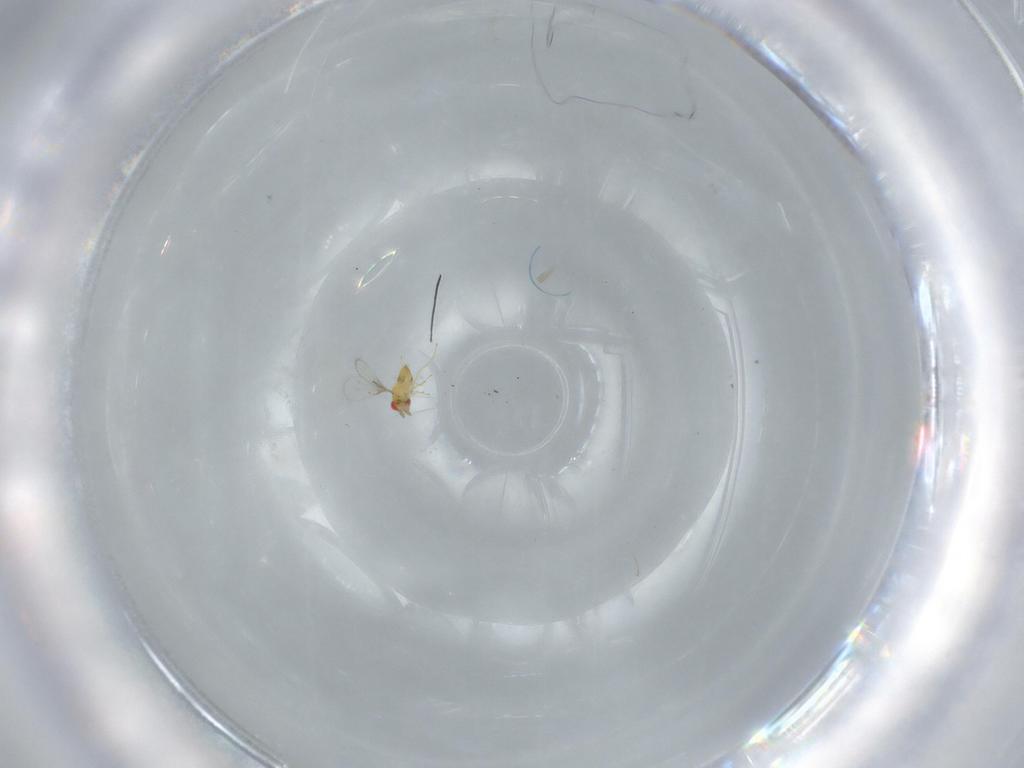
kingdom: Animalia
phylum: Arthropoda
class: Insecta
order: Hymenoptera
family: Trichogrammatidae
